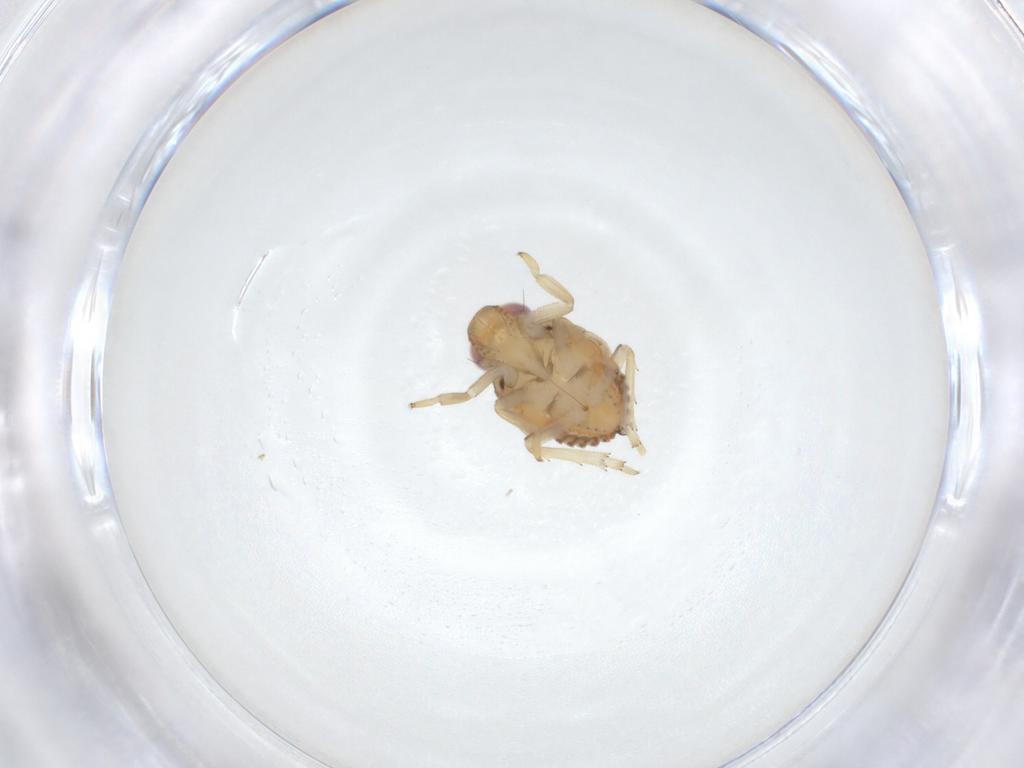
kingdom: Animalia
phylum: Arthropoda
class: Insecta
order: Hemiptera
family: Issidae
